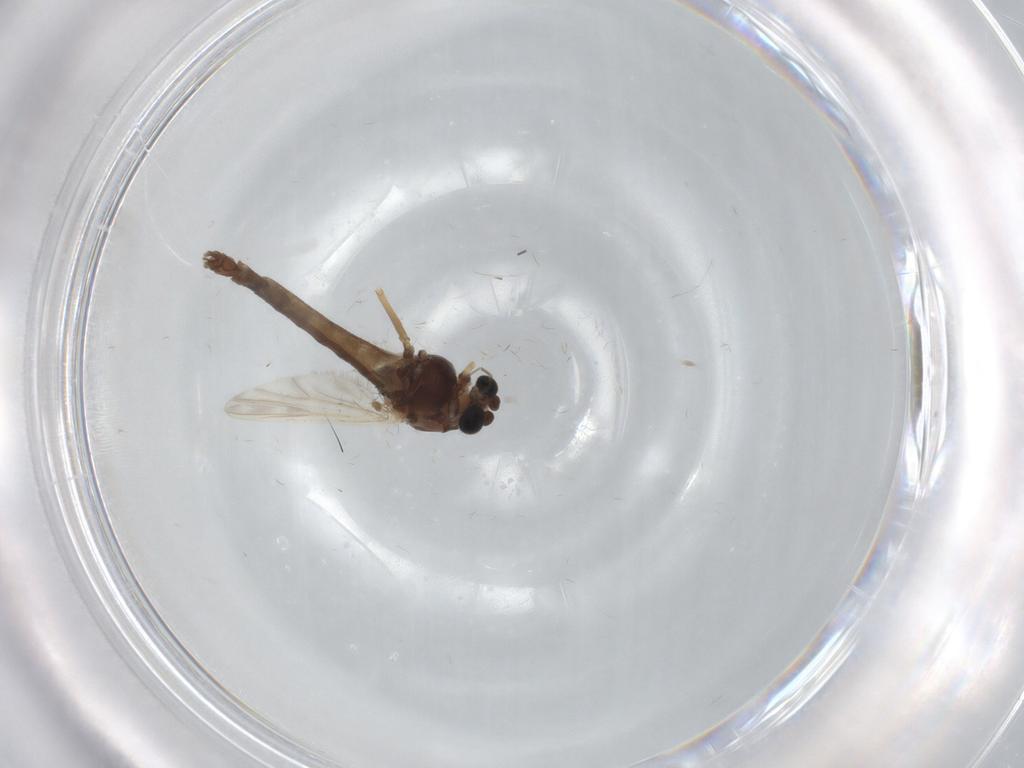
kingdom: Animalia
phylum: Arthropoda
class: Insecta
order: Diptera
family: Chironomidae
